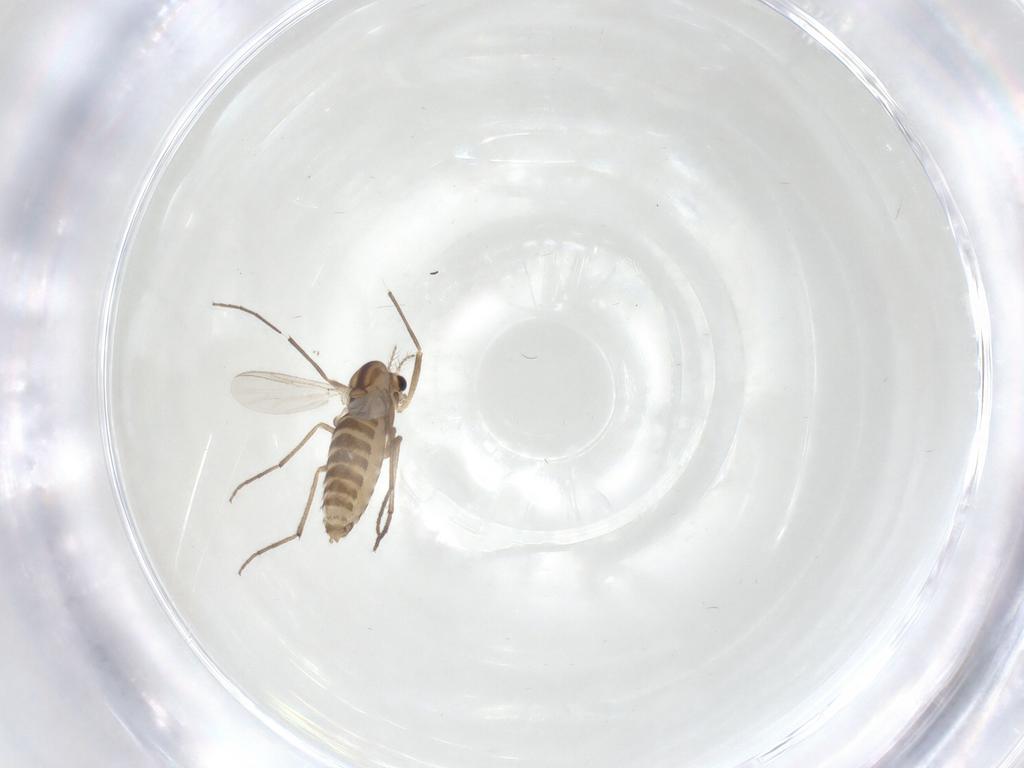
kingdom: Animalia
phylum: Arthropoda
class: Insecta
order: Diptera
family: Chironomidae
